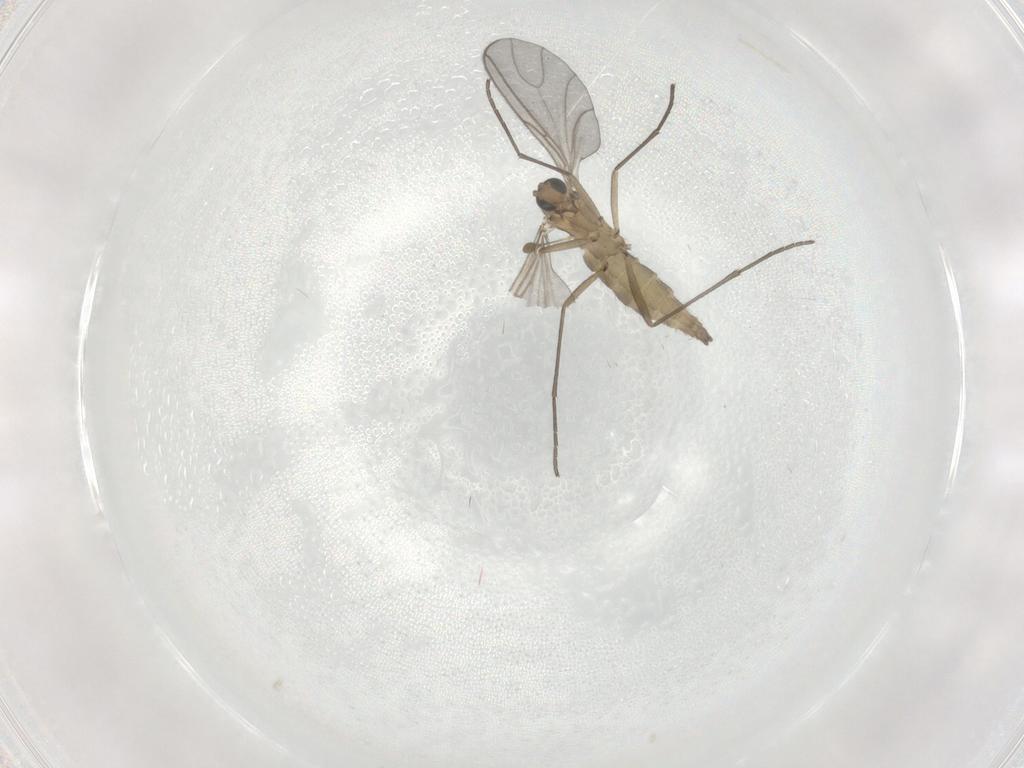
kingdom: Animalia
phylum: Arthropoda
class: Insecta
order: Diptera
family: Sciaridae
